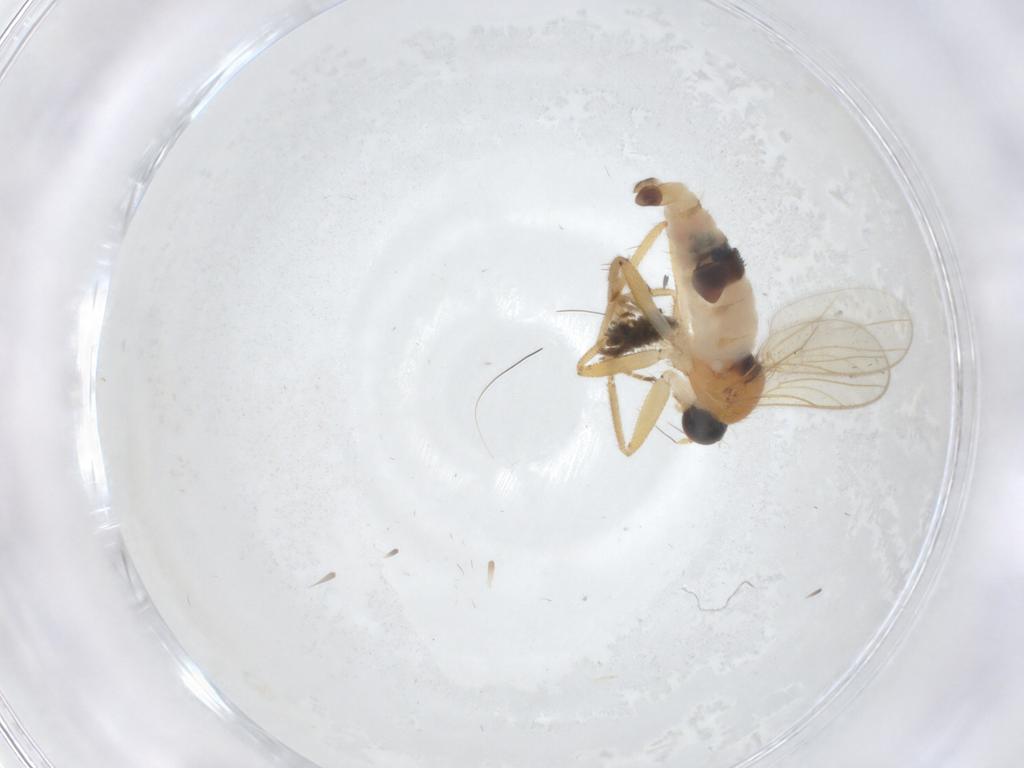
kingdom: Animalia
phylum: Arthropoda
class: Insecta
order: Diptera
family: Hybotidae
